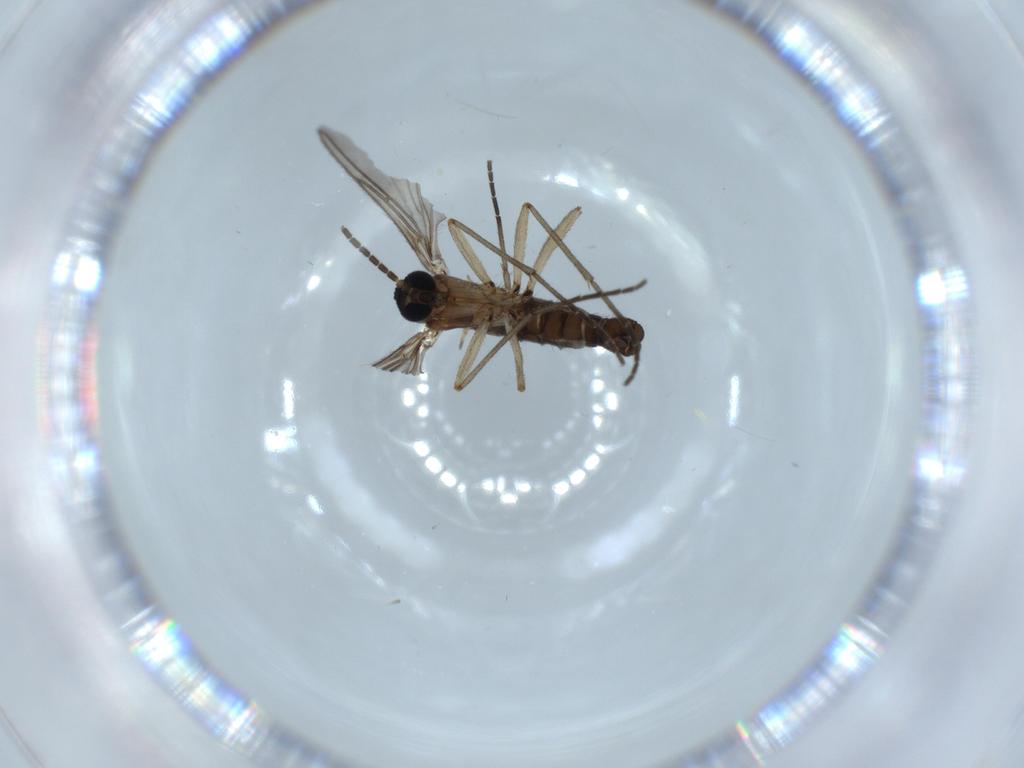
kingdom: Animalia
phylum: Arthropoda
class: Insecta
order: Diptera
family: Sciaridae
